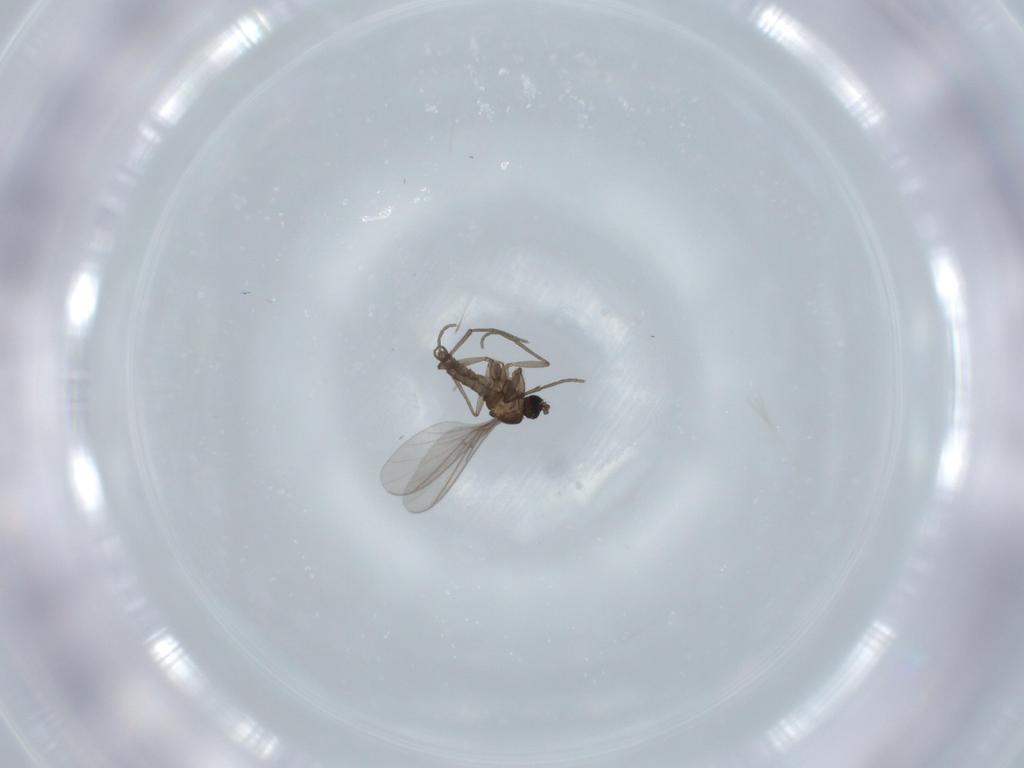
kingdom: Animalia
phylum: Arthropoda
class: Insecta
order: Diptera
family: Sciaridae
